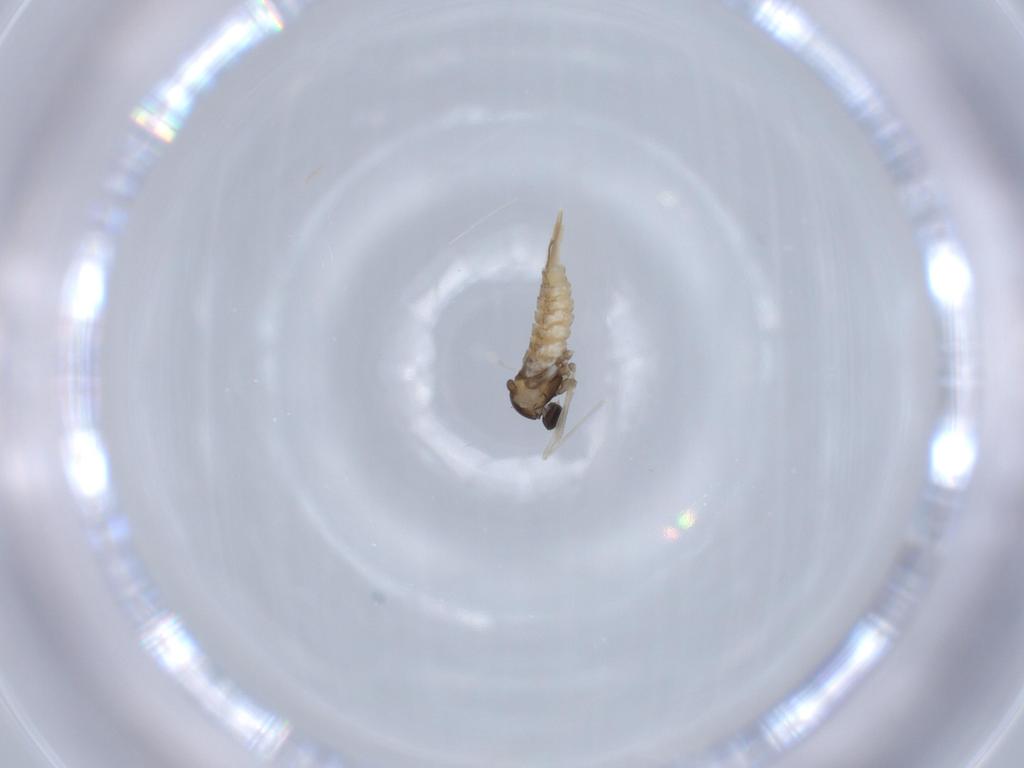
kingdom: Animalia
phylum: Arthropoda
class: Insecta
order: Diptera
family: Cecidomyiidae
